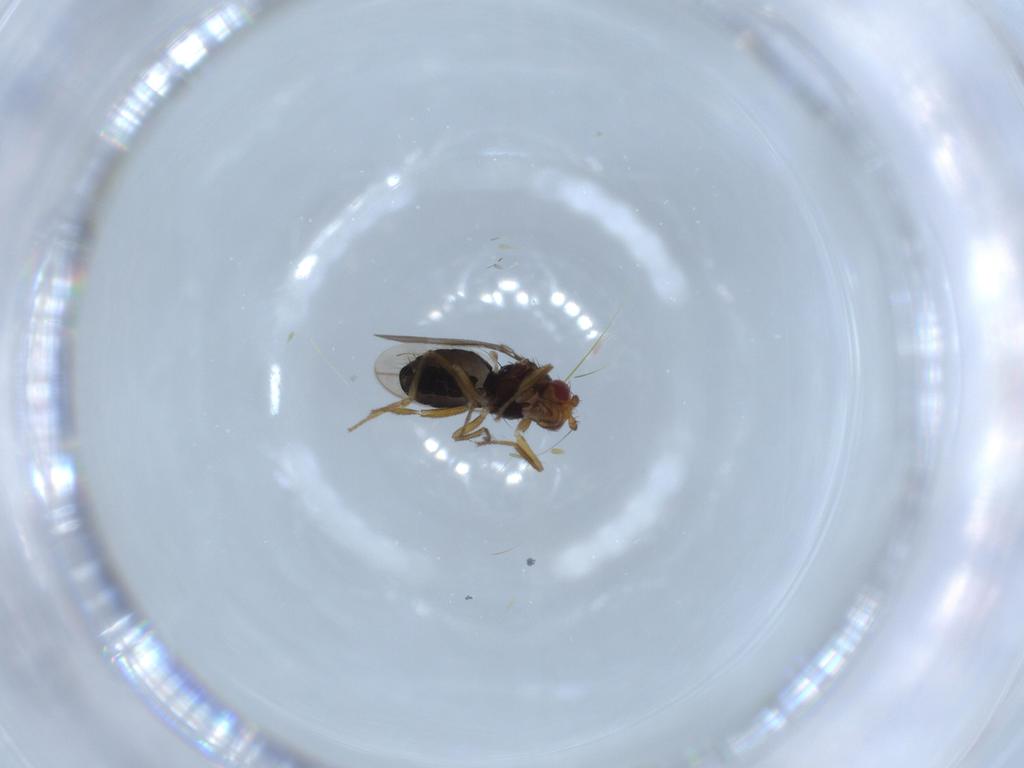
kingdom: Animalia
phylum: Arthropoda
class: Insecta
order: Diptera
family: Sphaeroceridae
